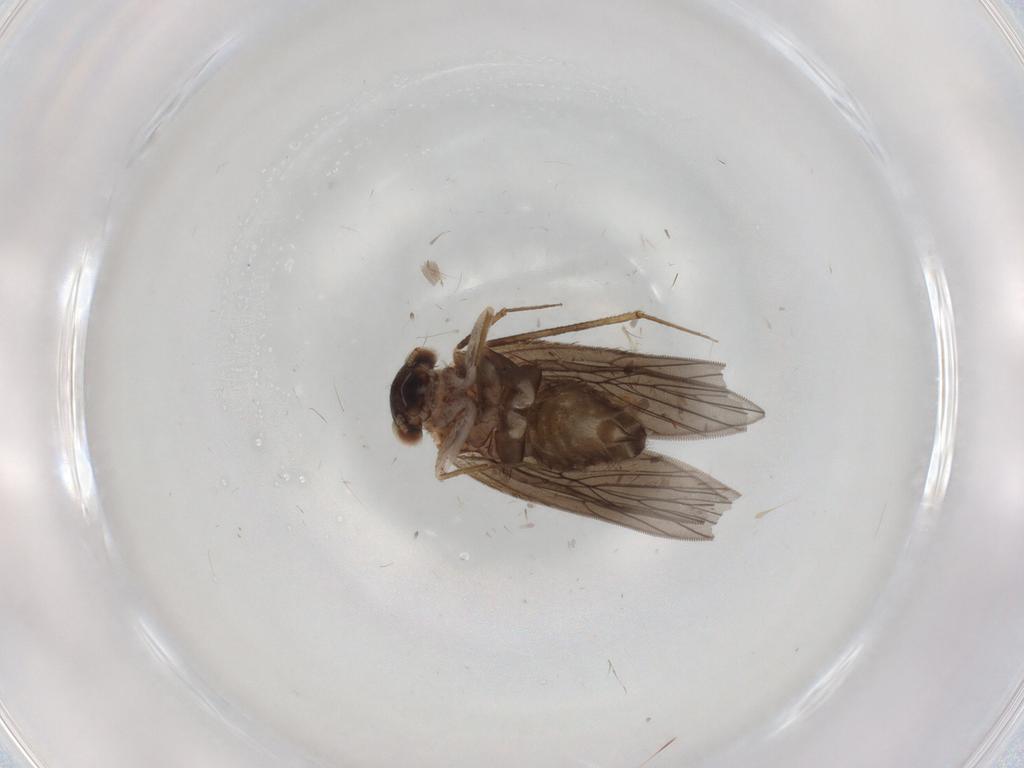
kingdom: Animalia
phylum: Arthropoda
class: Insecta
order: Psocodea
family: Lepidopsocidae
